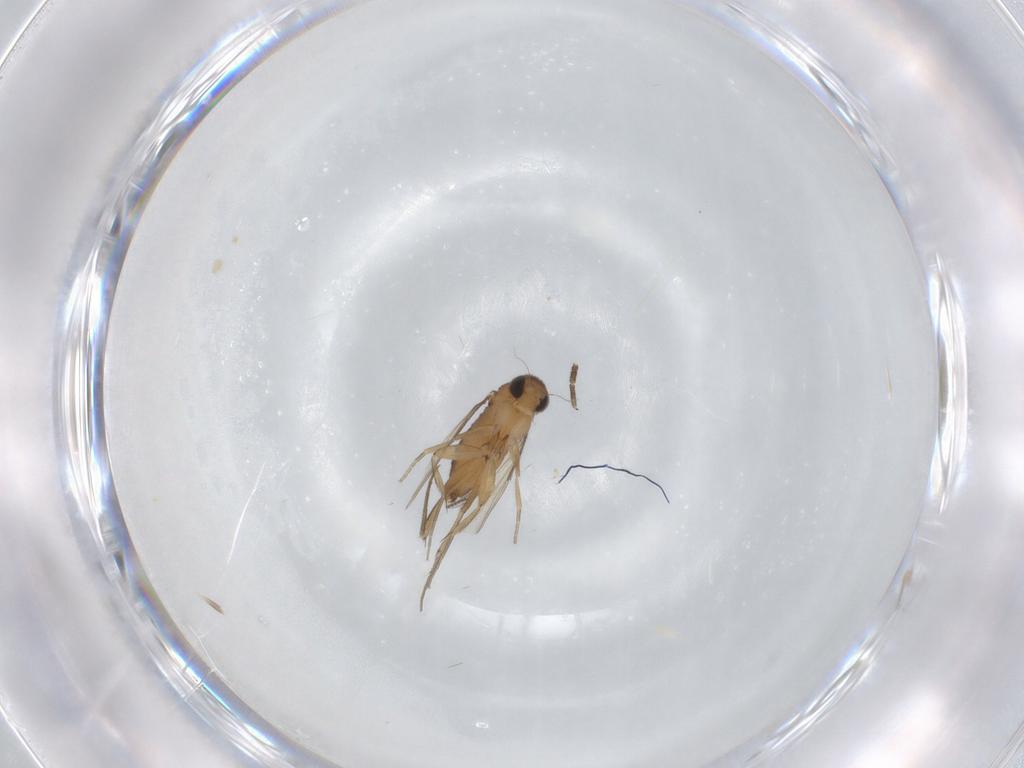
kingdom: Animalia
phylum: Arthropoda
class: Insecta
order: Diptera
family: Phoridae
